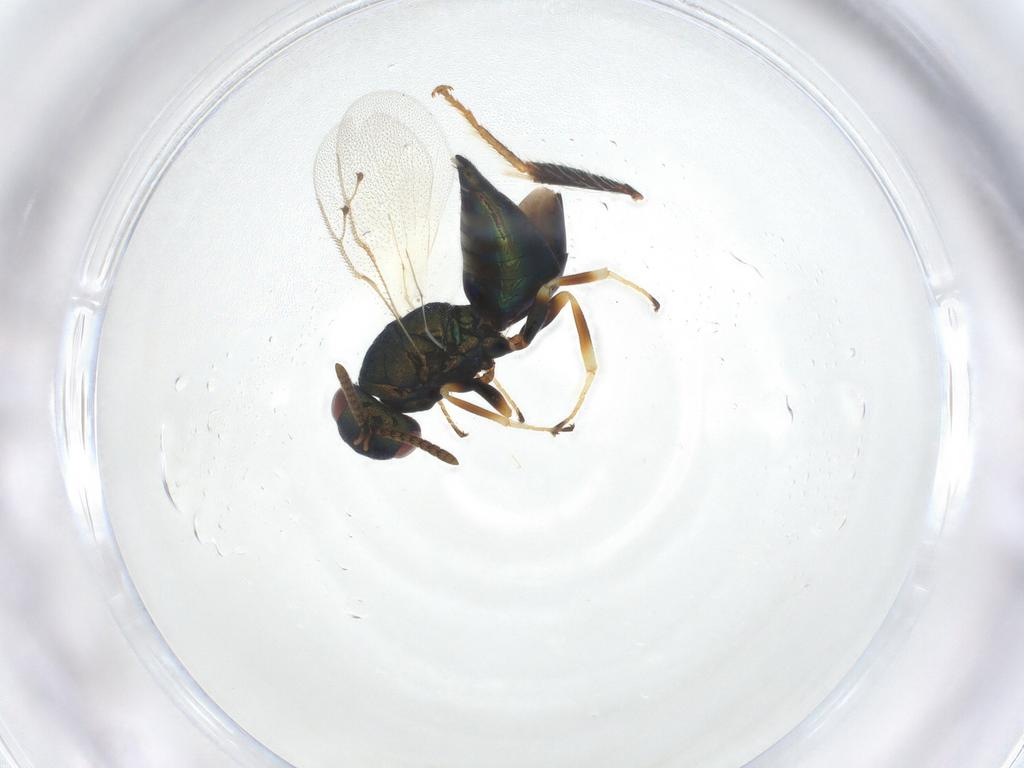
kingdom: Animalia
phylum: Arthropoda
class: Insecta
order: Hymenoptera
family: Pteromalidae
